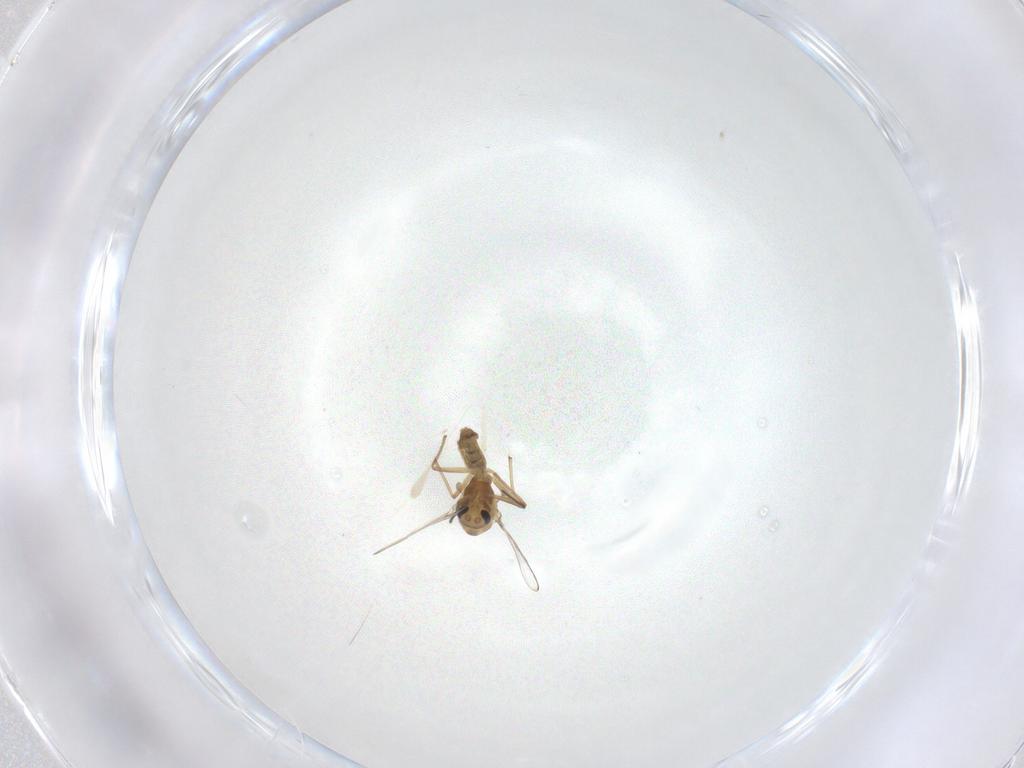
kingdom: Animalia
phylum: Arthropoda
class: Insecta
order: Diptera
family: Chironomidae
